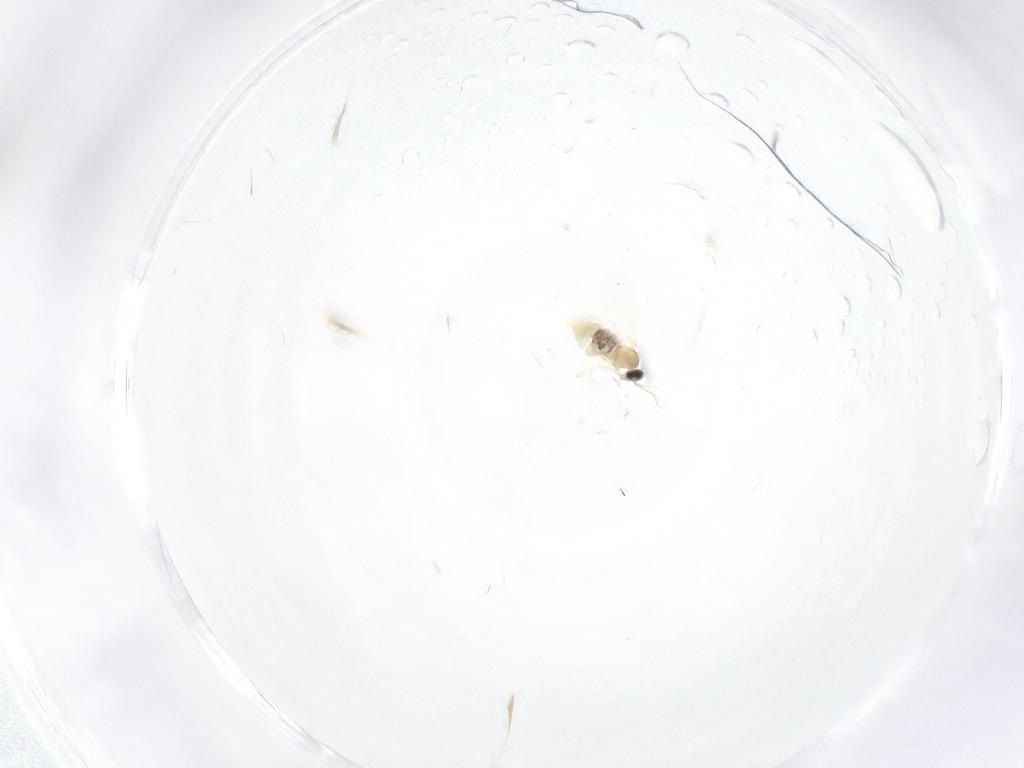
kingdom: Animalia
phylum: Arthropoda
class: Insecta
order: Diptera
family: Cecidomyiidae
